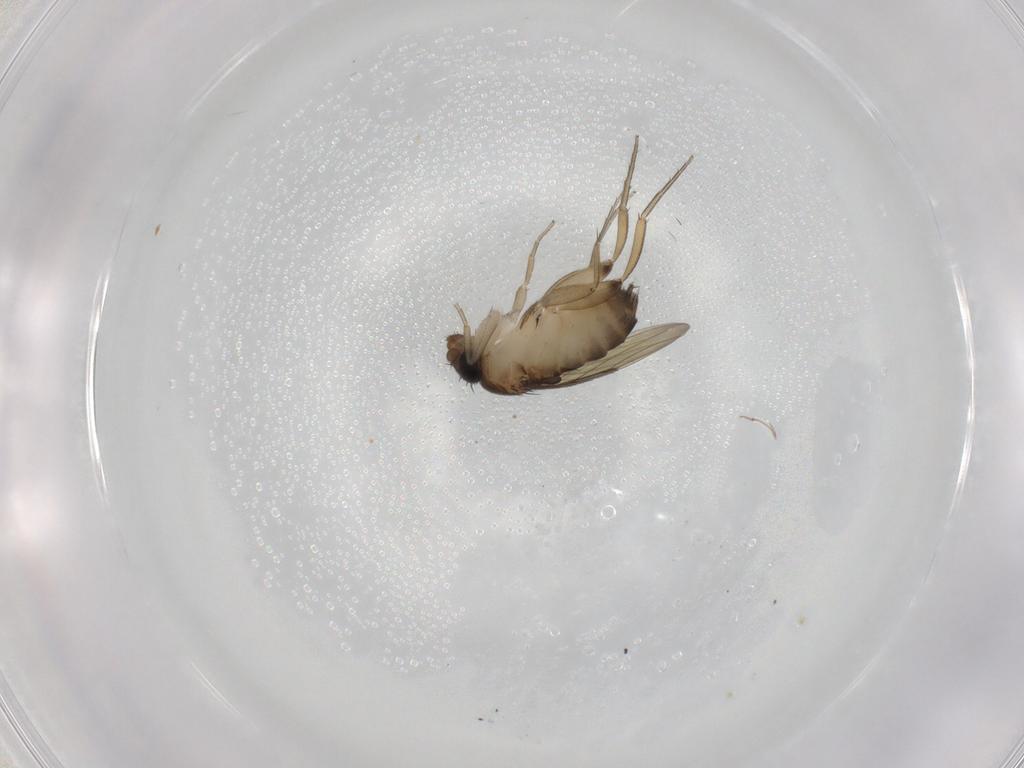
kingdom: Animalia
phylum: Arthropoda
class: Insecta
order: Diptera
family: Phoridae
